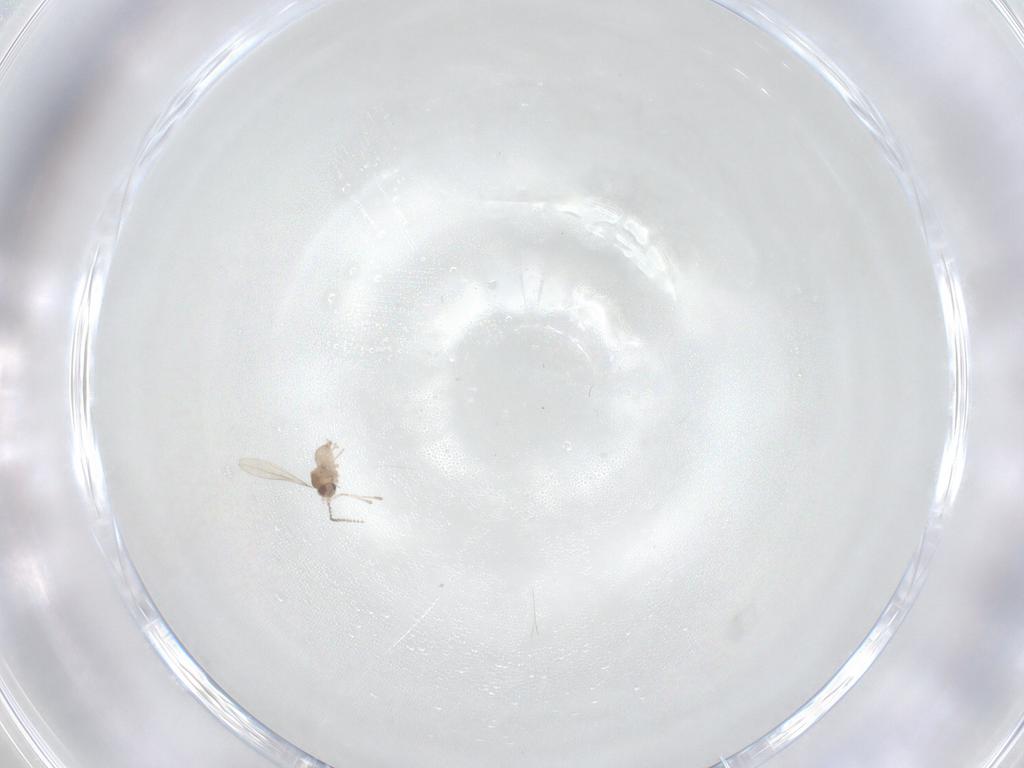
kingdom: Animalia
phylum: Arthropoda
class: Insecta
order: Diptera
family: Cecidomyiidae
